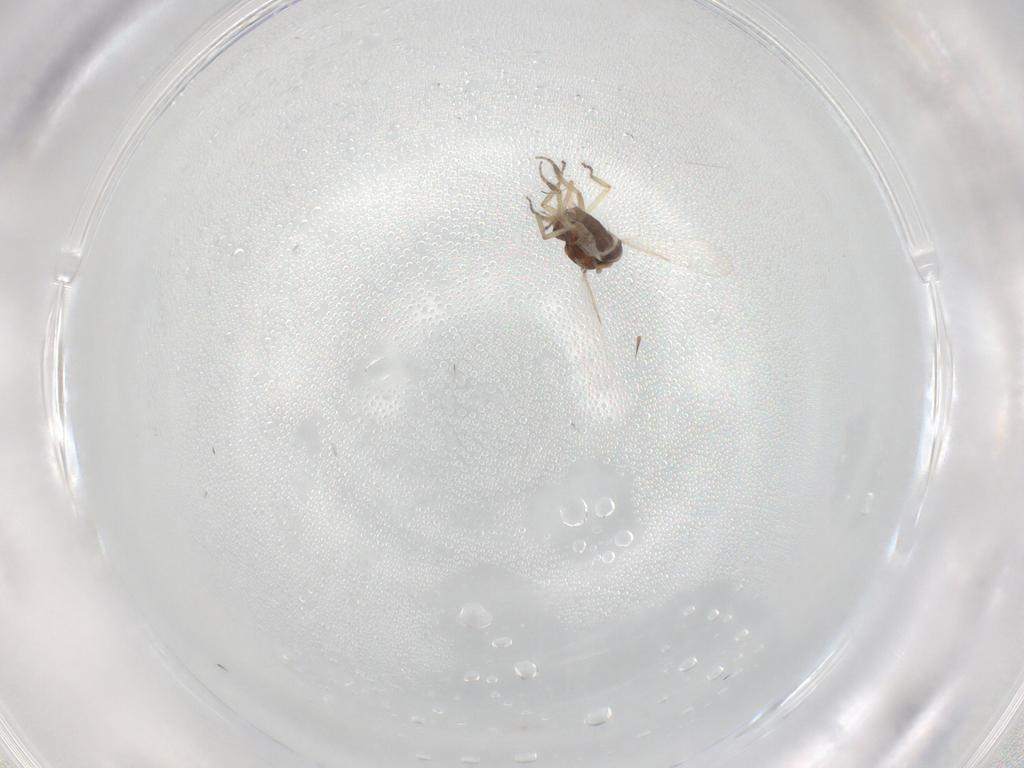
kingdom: Animalia
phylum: Arthropoda
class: Insecta
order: Diptera
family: Ceratopogonidae
